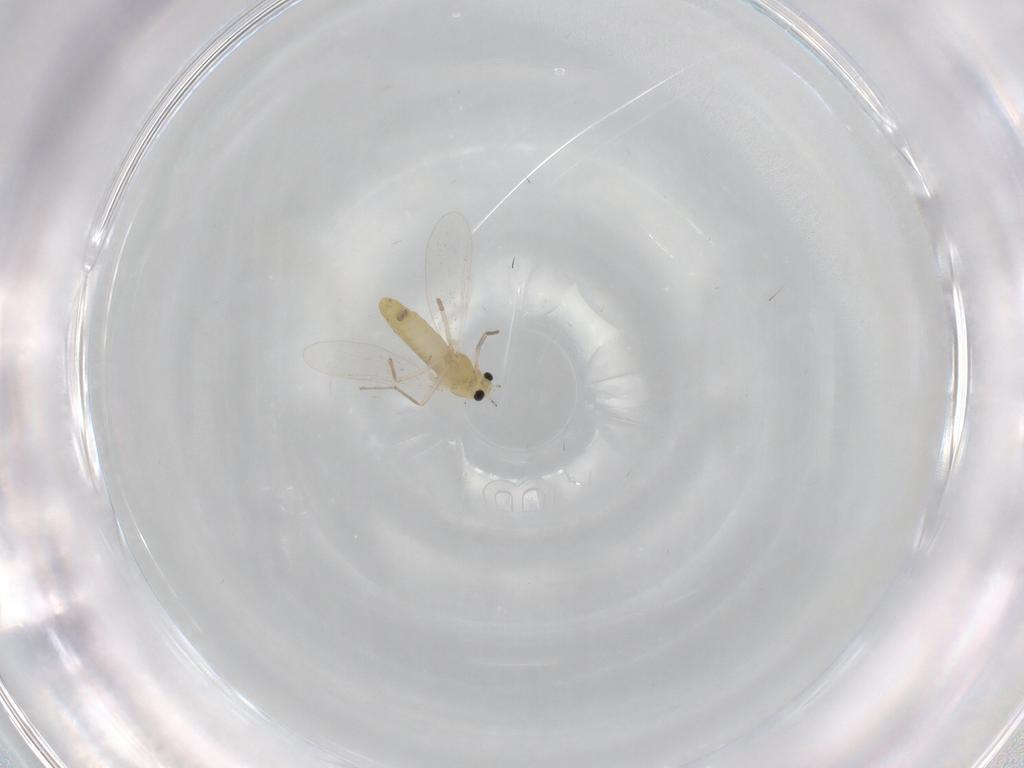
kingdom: Animalia
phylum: Arthropoda
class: Insecta
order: Diptera
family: Chironomidae
